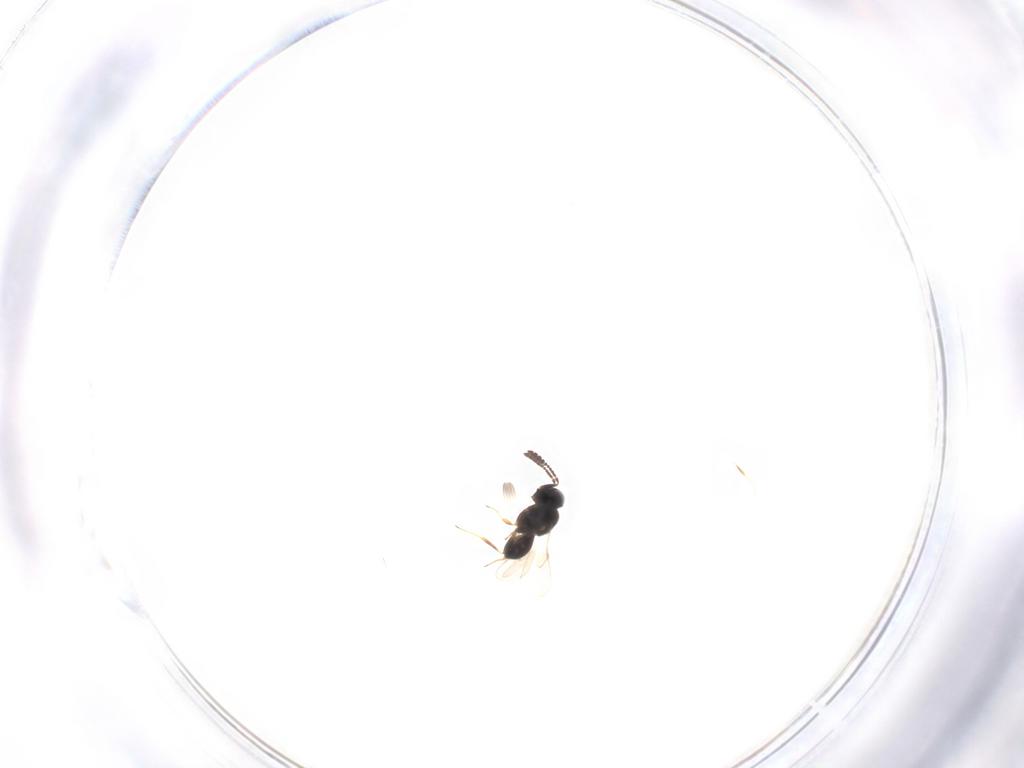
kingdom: Animalia
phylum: Arthropoda
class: Insecta
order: Hymenoptera
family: Scelionidae
